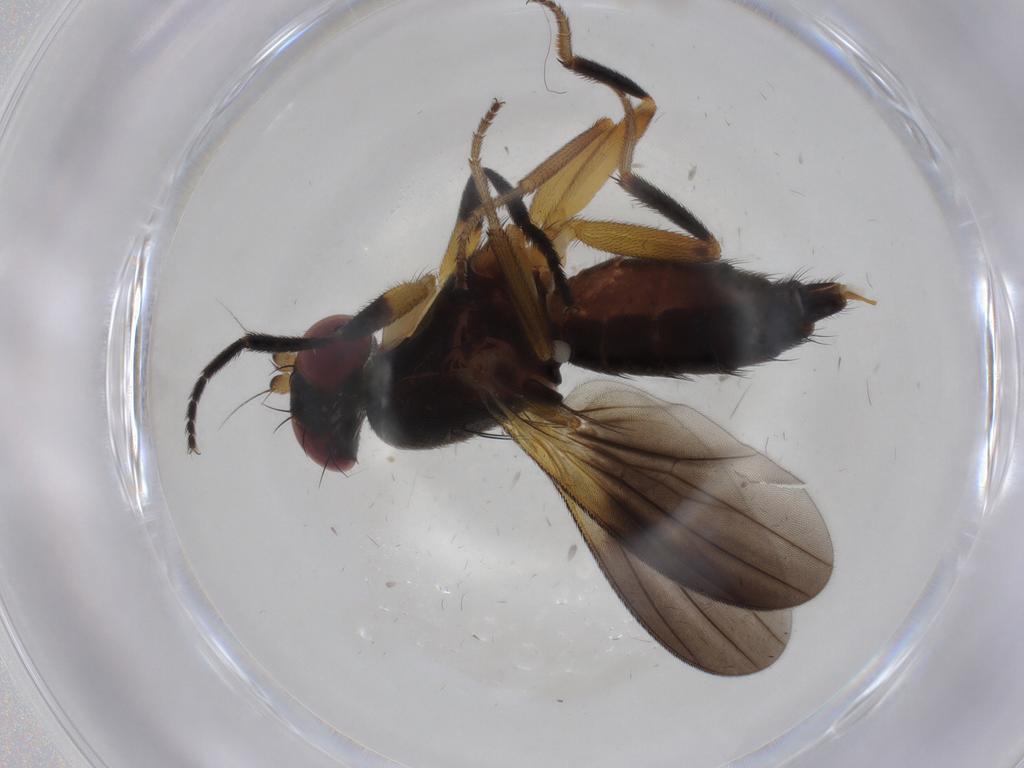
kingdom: Animalia
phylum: Arthropoda
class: Insecta
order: Diptera
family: Clusiidae
